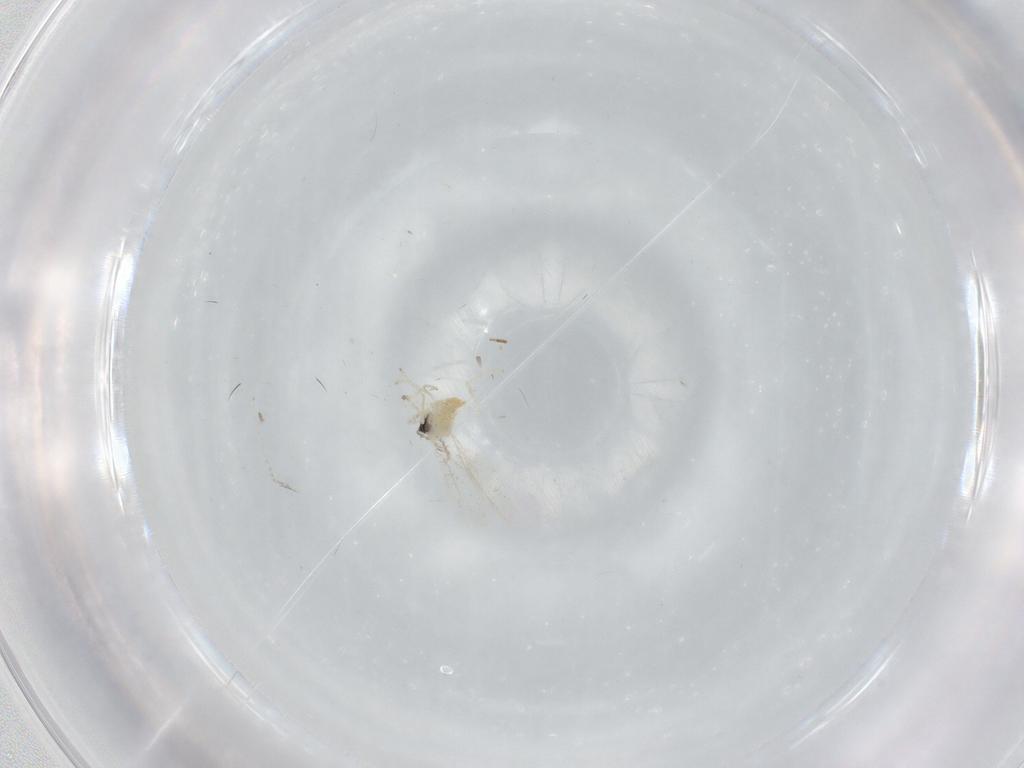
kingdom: Animalia
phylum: Arthropoda
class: Insecta
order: Diptera
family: Cecidomyiidae
